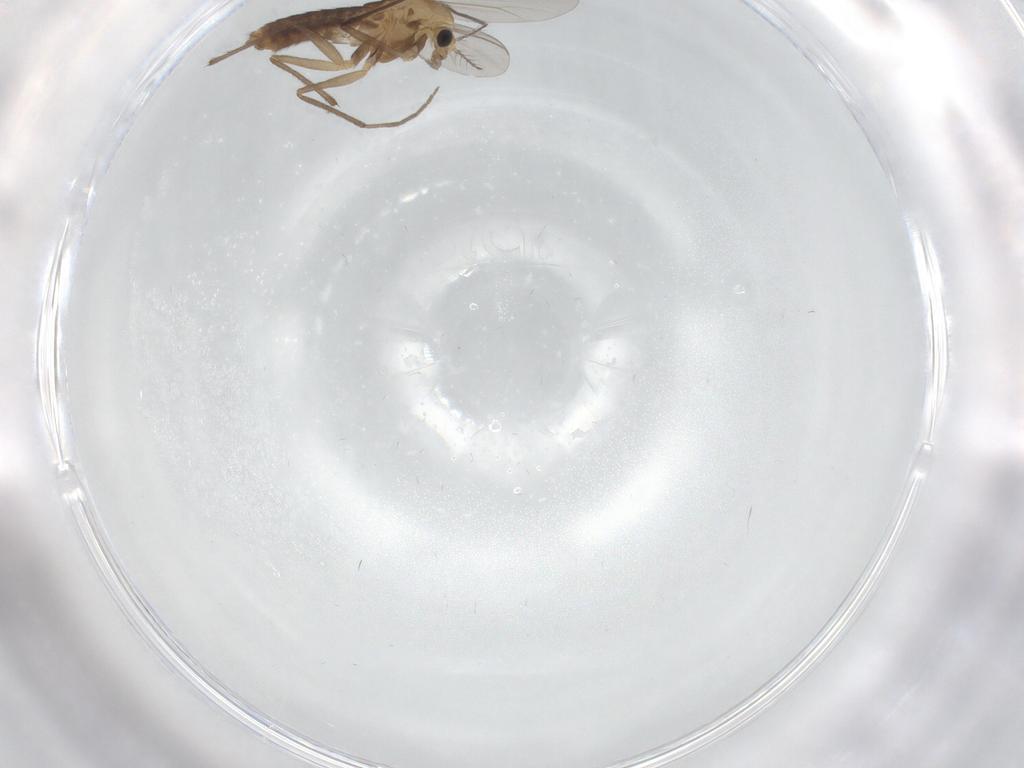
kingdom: Animalia
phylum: Arthropoda
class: Insecta
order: Diptera
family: Chironomidae
